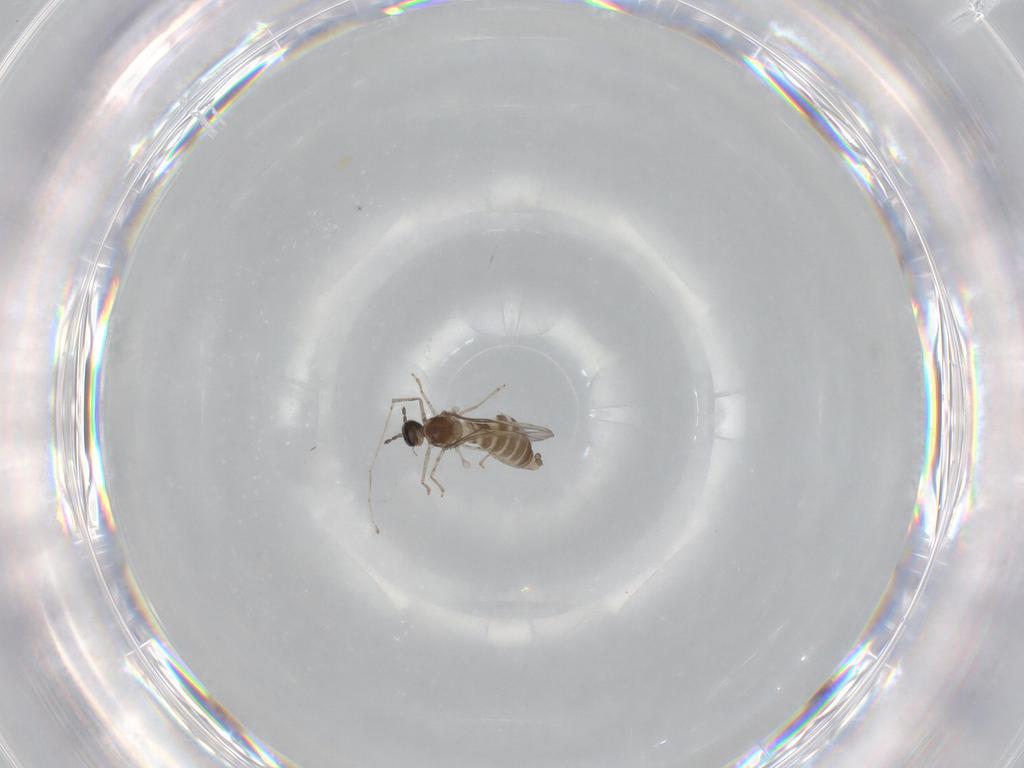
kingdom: Animalia
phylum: Arthropoda
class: Insecta
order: Diptera
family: Cecidomyiidae
